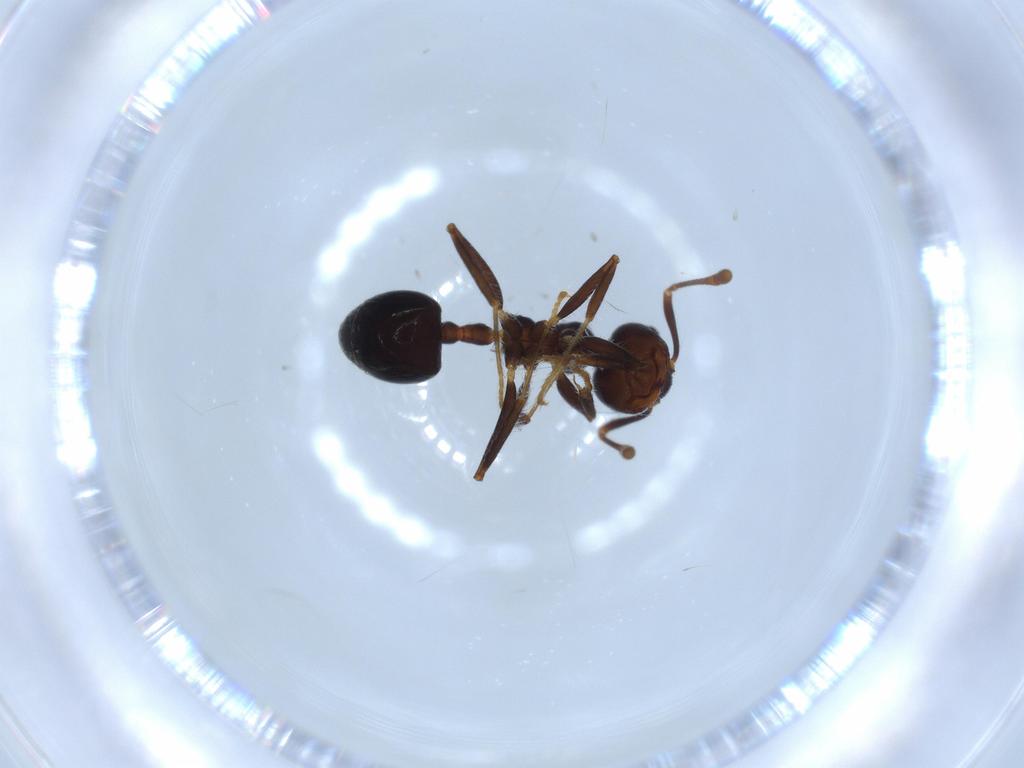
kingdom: Animalia
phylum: Arthropoda
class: Insecta
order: Hymenoptera
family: Formicidae
